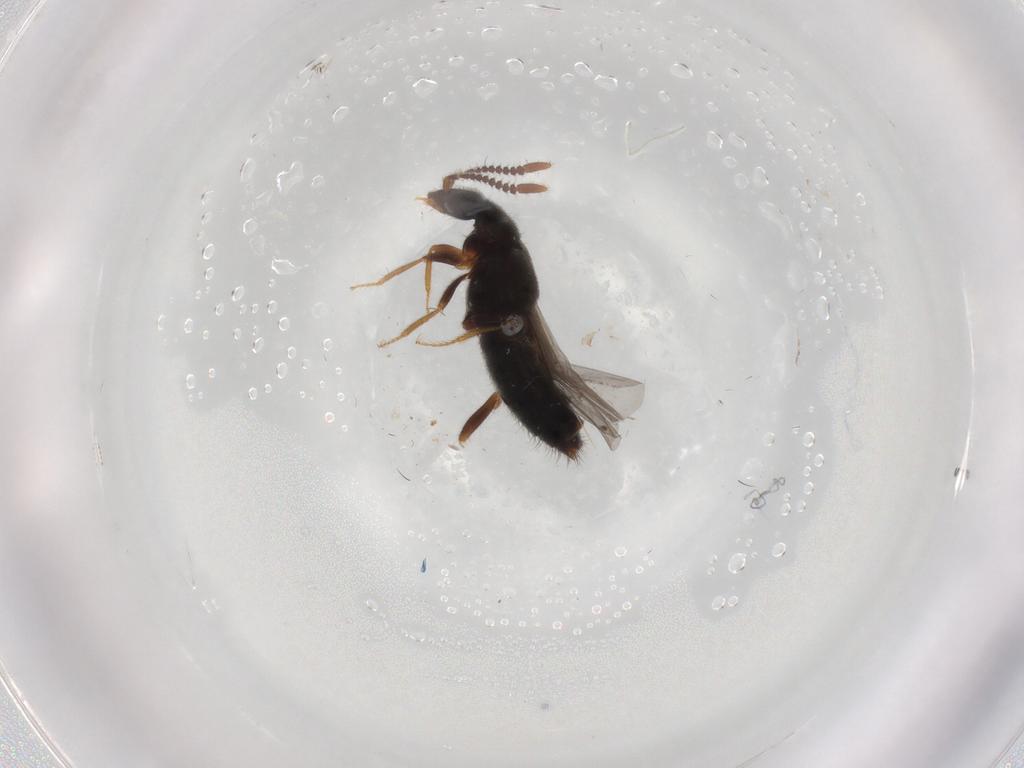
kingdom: Animalia
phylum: Arthropoda
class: Insecta
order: Coleoptera
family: Staphylinidae
